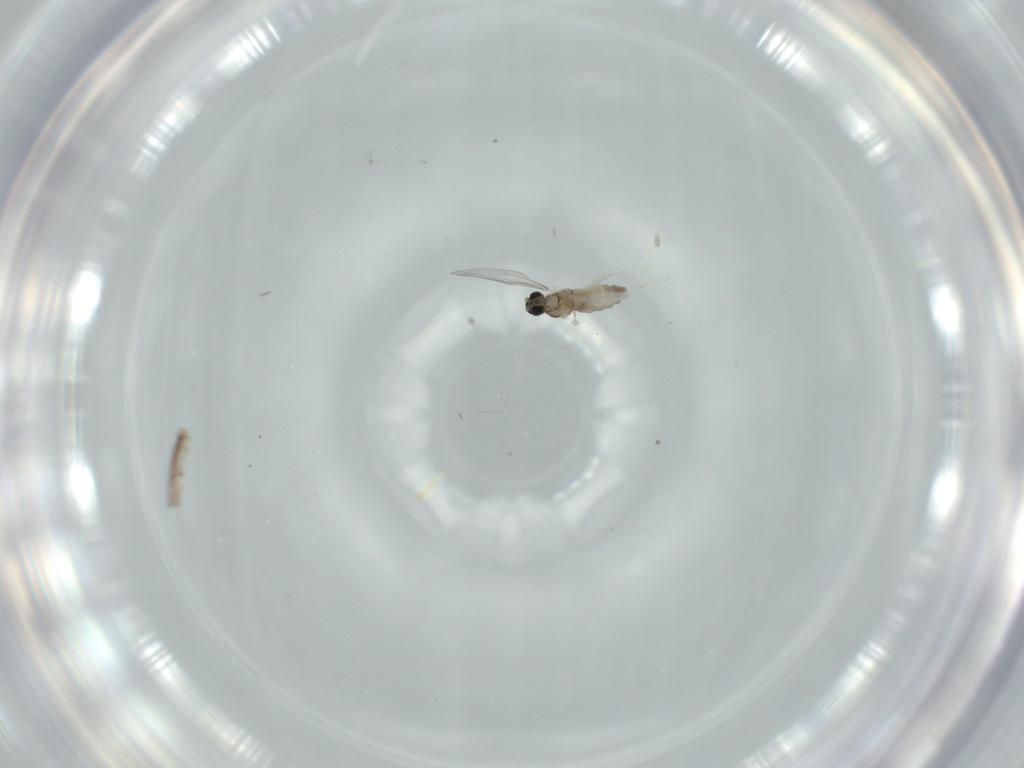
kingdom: Animalia
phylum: Arthropoda
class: Insecta
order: Diptera
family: Cecidomyiidae
